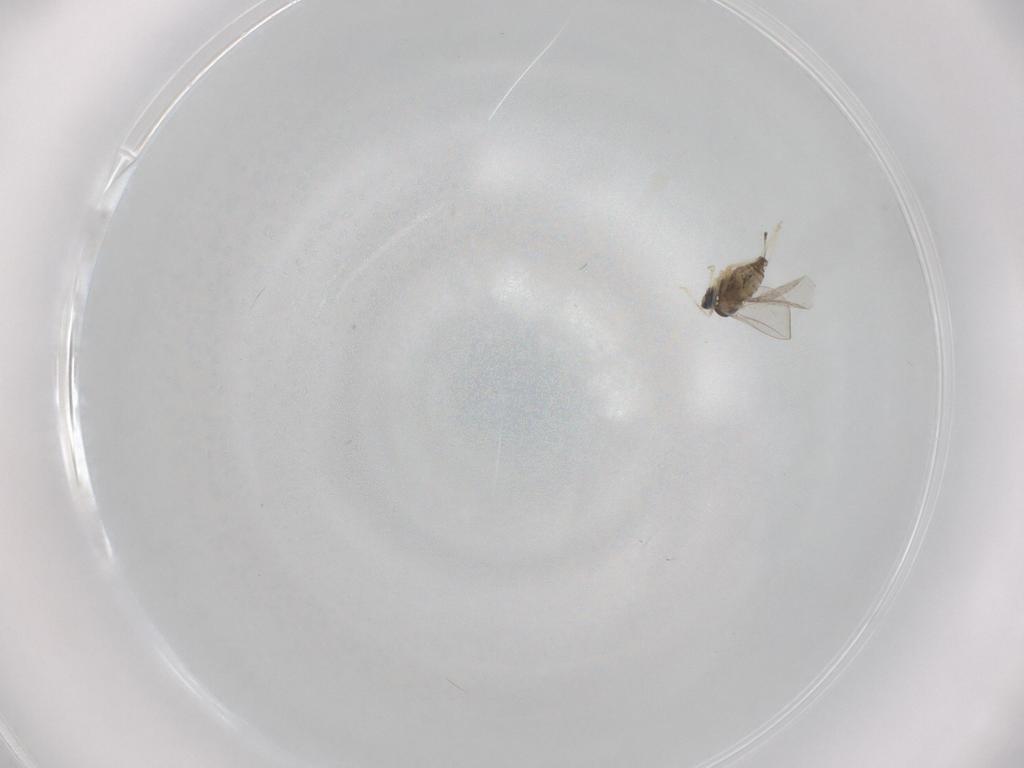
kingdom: Animalia
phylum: Arthropoda
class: Insecta
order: Diptera
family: Cecidomyiidae
